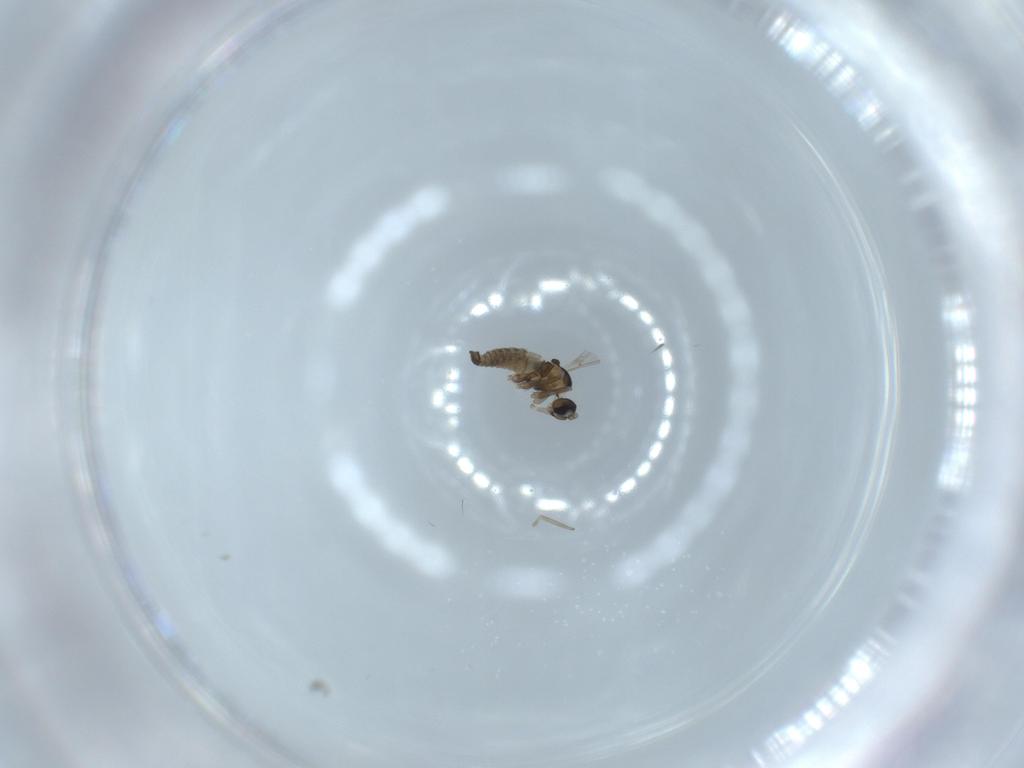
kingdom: Animalia
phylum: Arthropoda
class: Insecta
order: Diptera
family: Cecidomyiidae
